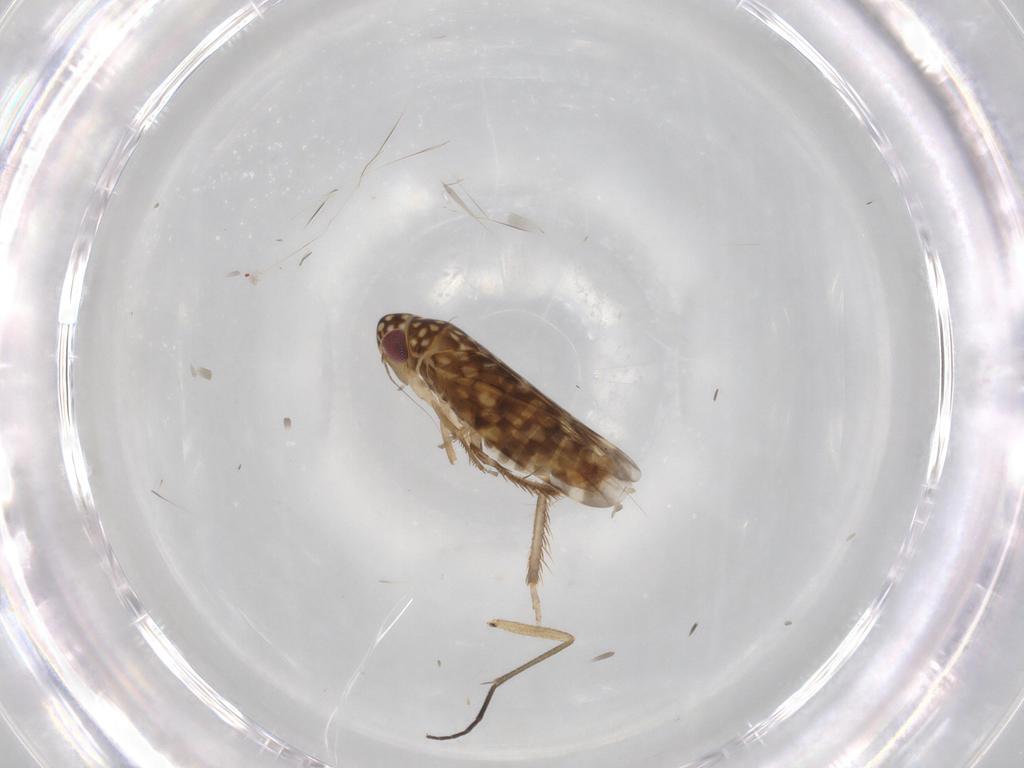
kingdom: Animalia
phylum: Arthropoda
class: Insecta
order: Hemiptera
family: Cicadellidae
